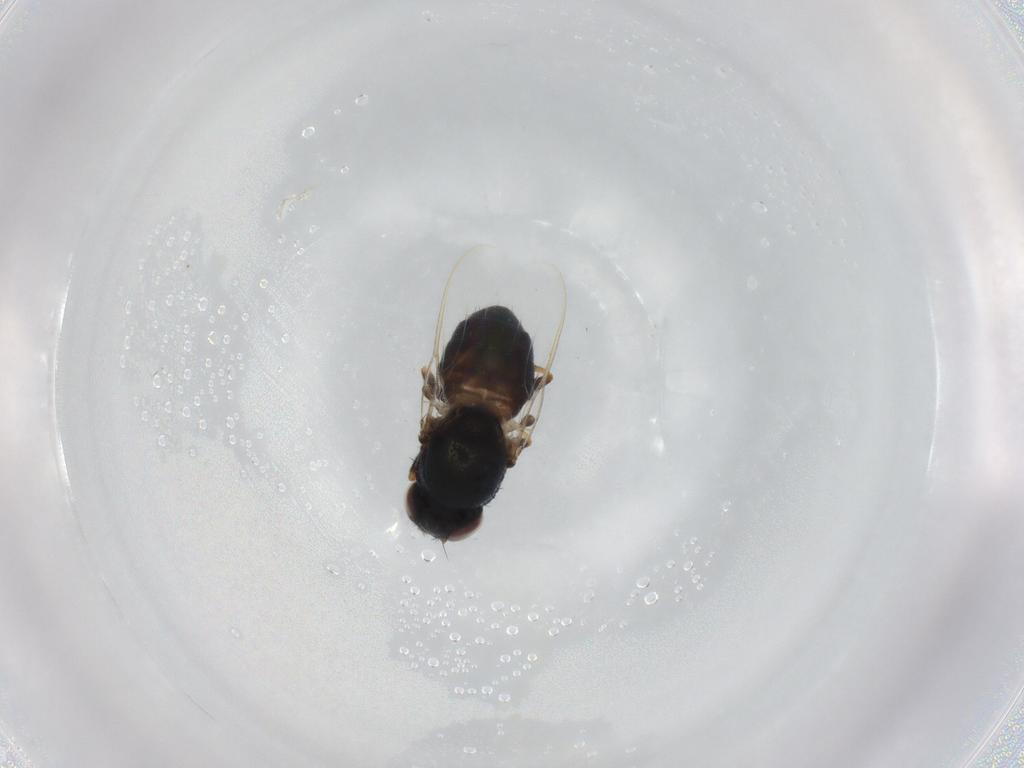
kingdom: Animalia
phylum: Arthropoda
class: Insecta
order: Diptera
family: Chloropidae
